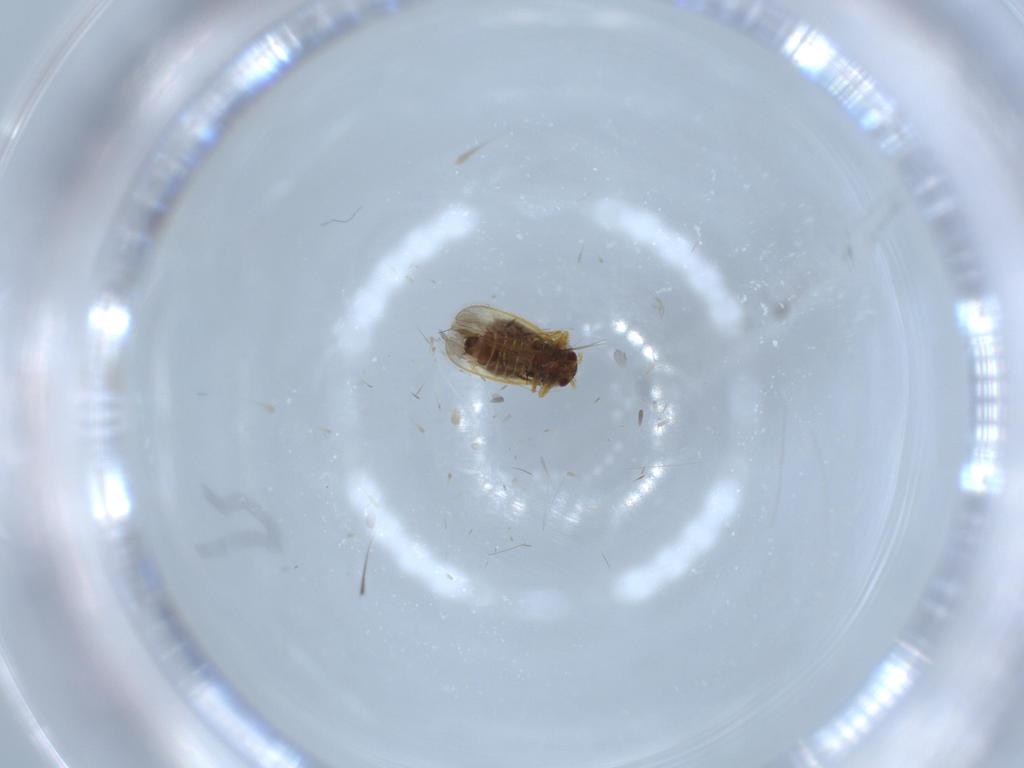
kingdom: Animalia
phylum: Arthropoda
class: Insecta
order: Hemiptera
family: Schizopteridae
